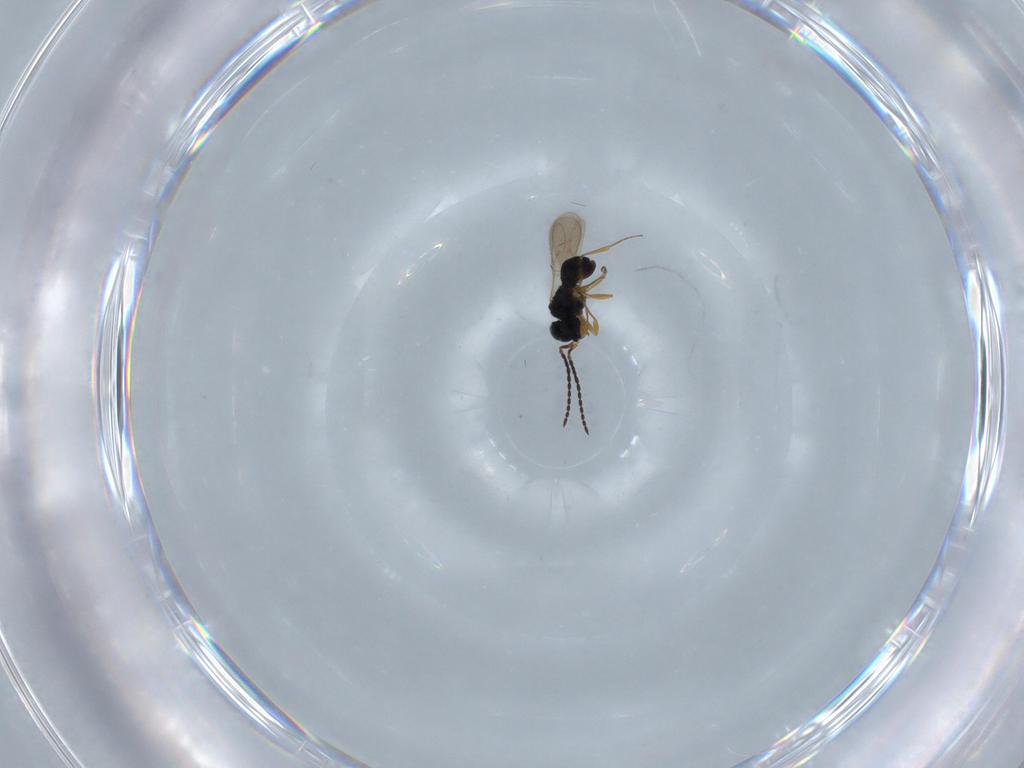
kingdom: Animalia
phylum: Arthropoda
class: Insecta
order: Hymenoptera
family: Scelionidae
